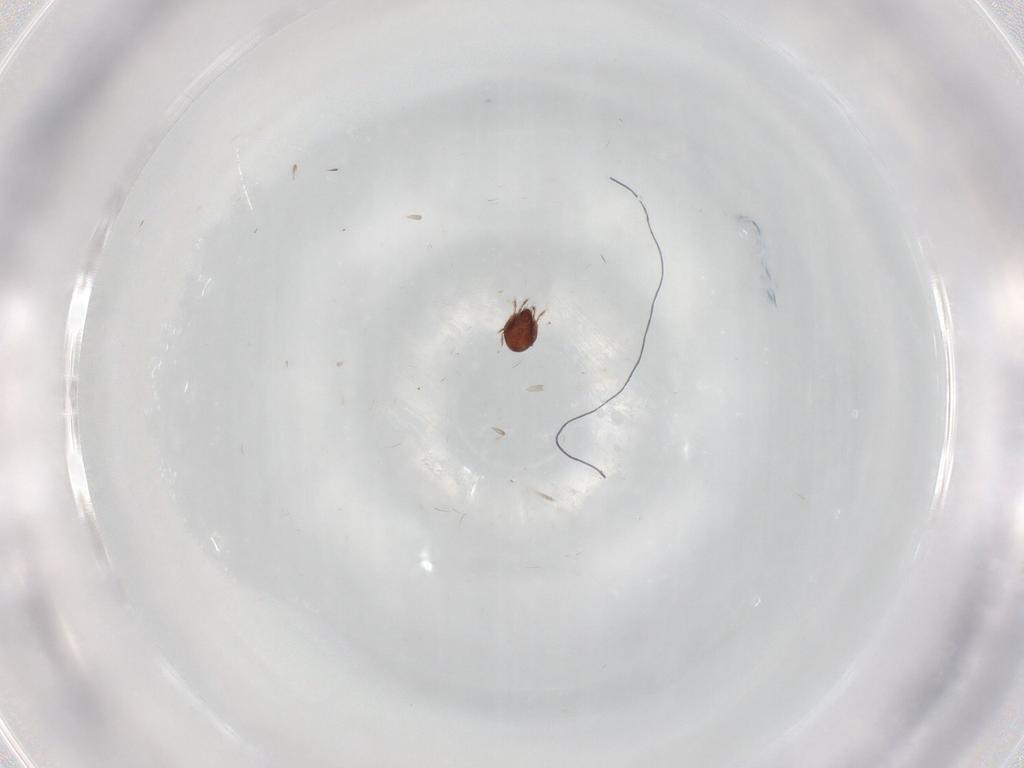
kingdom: Animalia
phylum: Arthropoda
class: Arachnida
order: Sarcoptiformes
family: Ceratozetidae
